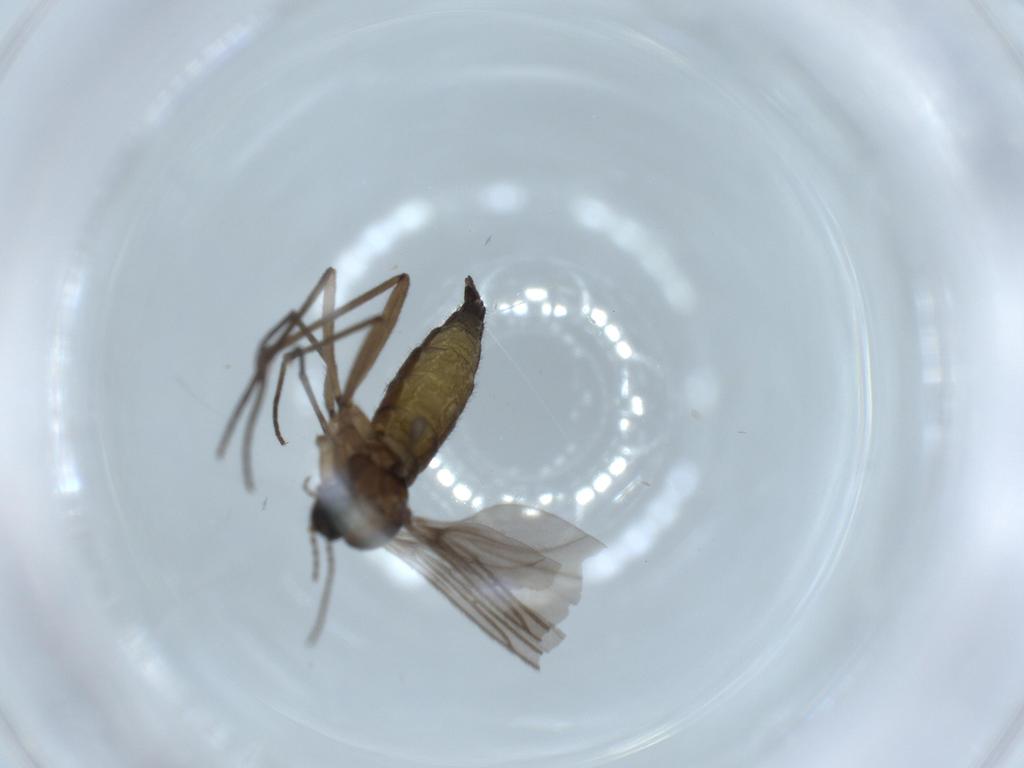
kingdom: Animalia
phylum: Arthropoda
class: Insecta
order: Diptera
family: Sciaridae
